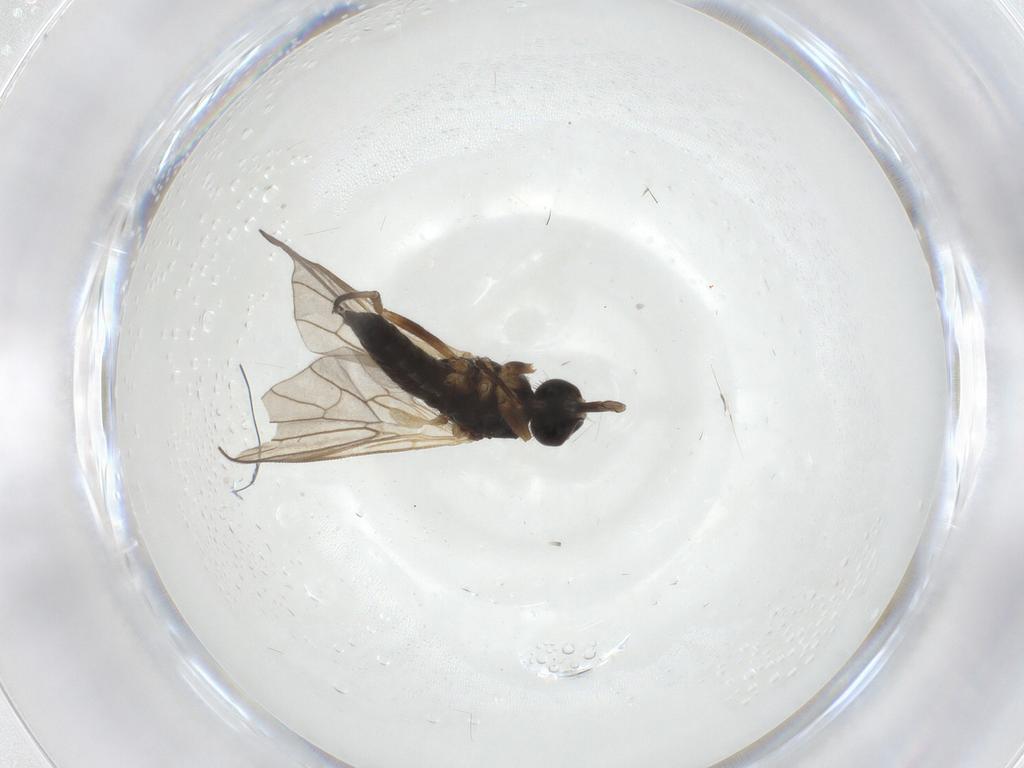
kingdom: Animalia
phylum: Arthropoda
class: Insecta
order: Diptera
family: Empididae
